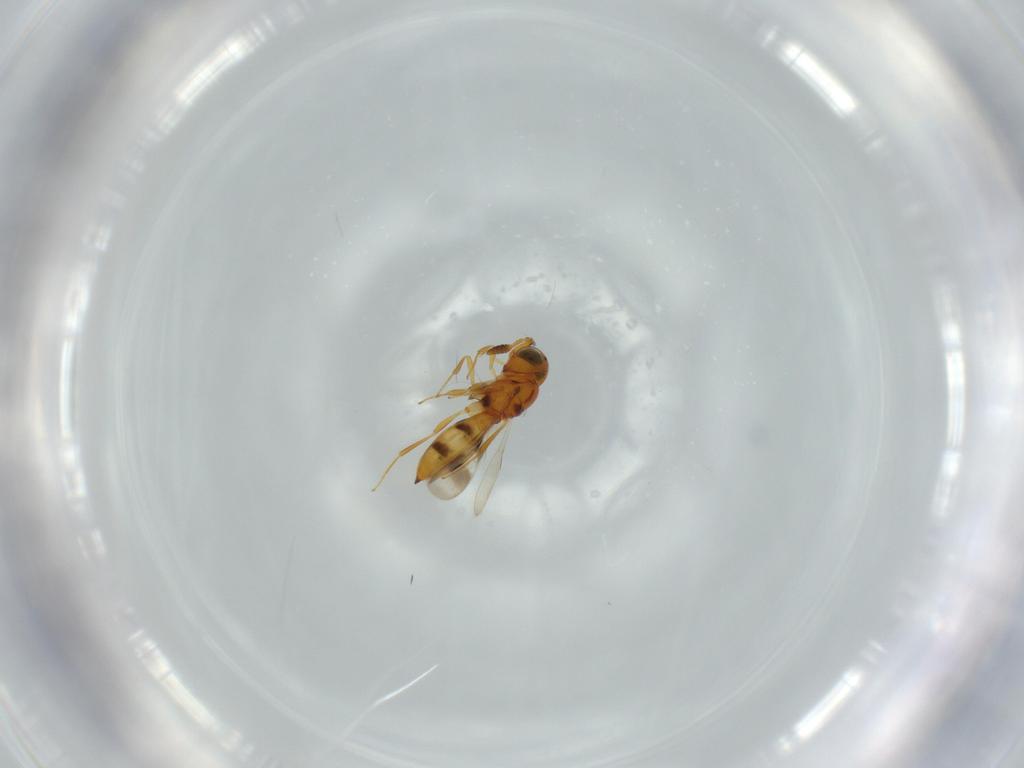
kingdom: Animalia
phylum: Arthropoda
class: Insecta
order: Hymenoptera
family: Scelionidae
